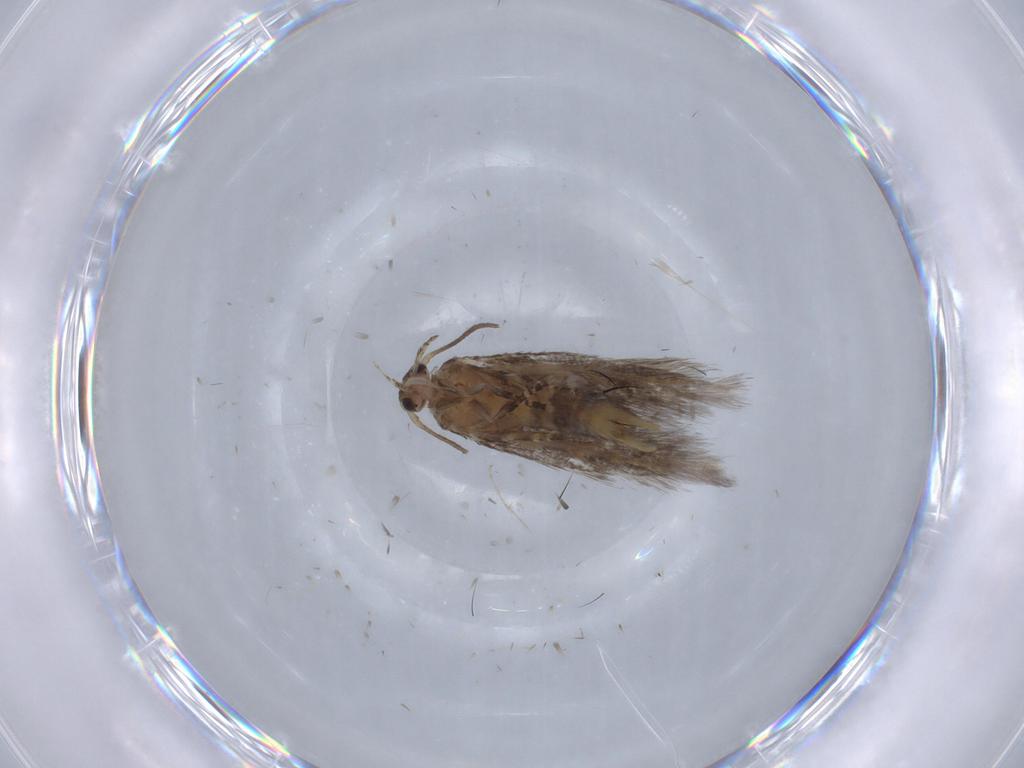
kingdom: Animalia
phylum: Arthropoda
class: Insecta
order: Lepidoptera
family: Elachistidae
